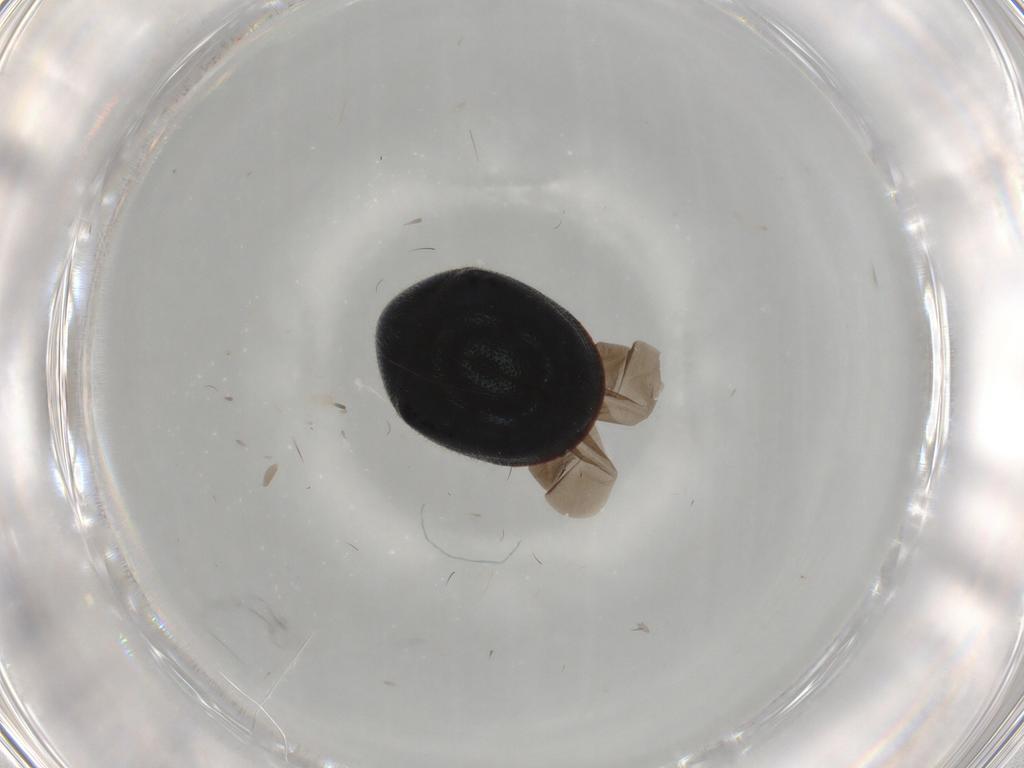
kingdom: Animalia
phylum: Arthropoda
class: Insecta
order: Coleoptera
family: Ptinidae
